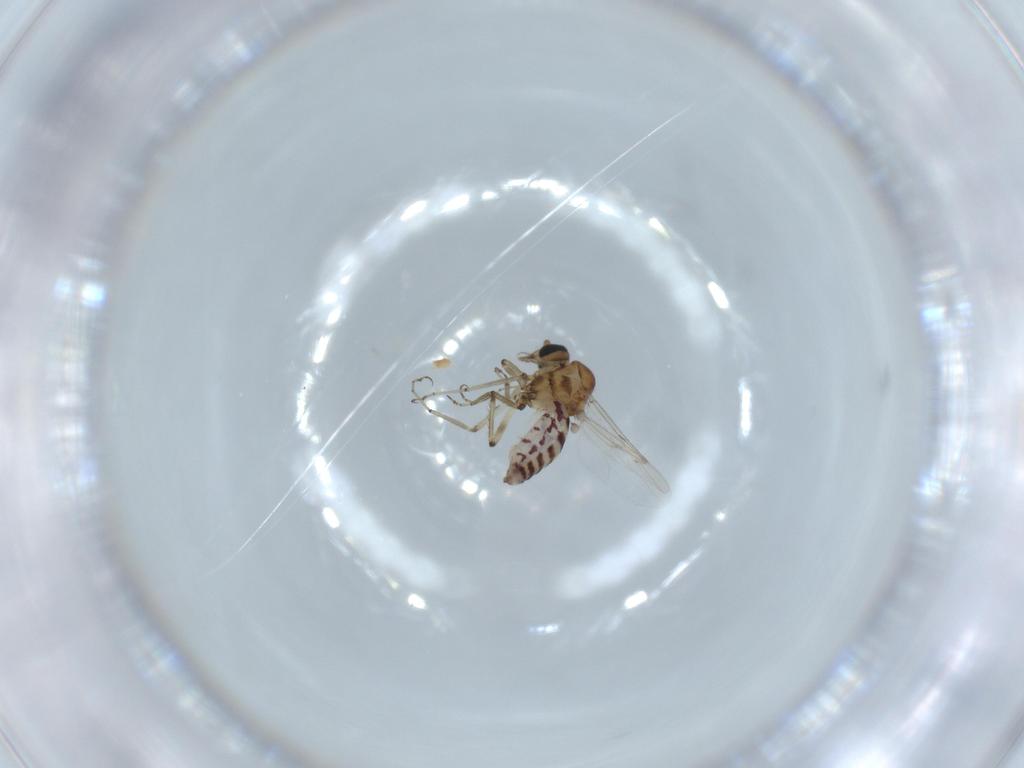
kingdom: Animalia
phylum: Arthropoda
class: Insecta
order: Diptera
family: Ceratopogonidae
